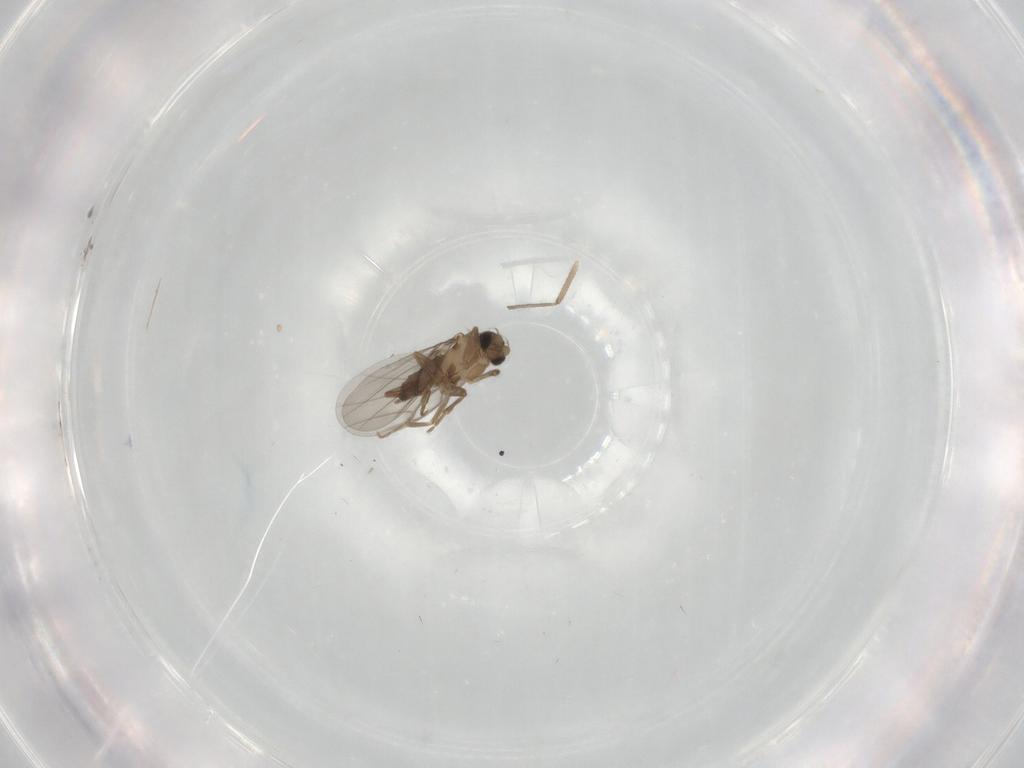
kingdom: Animalia
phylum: Arthropoda
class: Insecta
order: Diptera
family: Chironomidae
